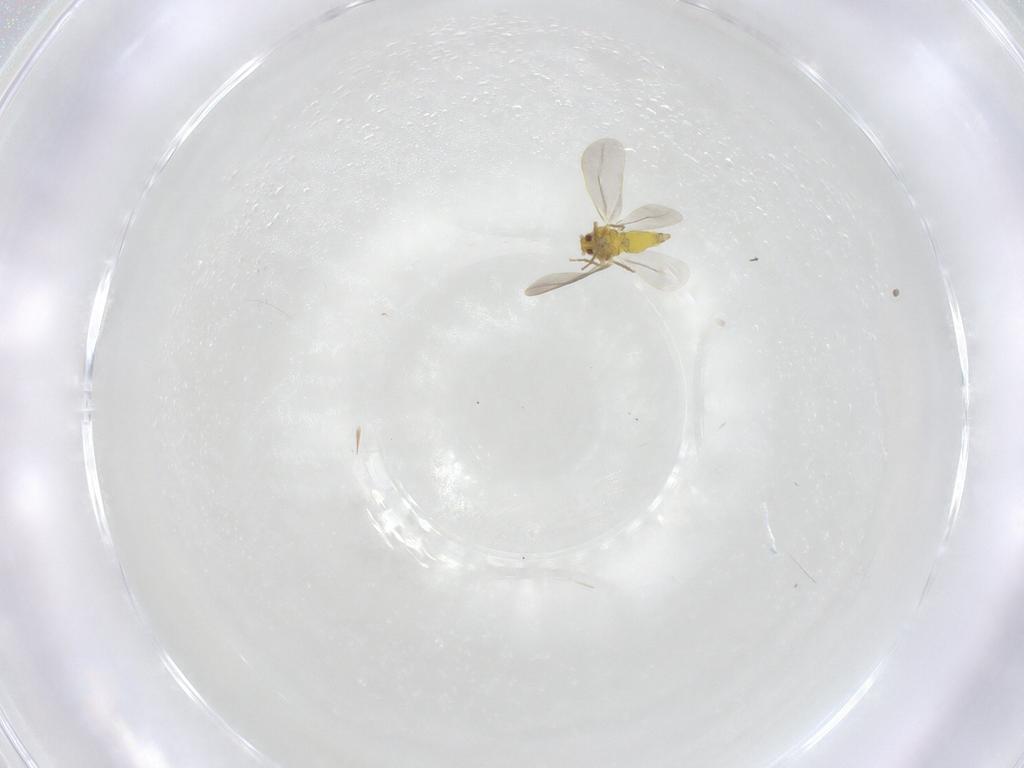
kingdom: Animalia
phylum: Arthropoda
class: Insecta
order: Hemiptera
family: Aleyrodidae
